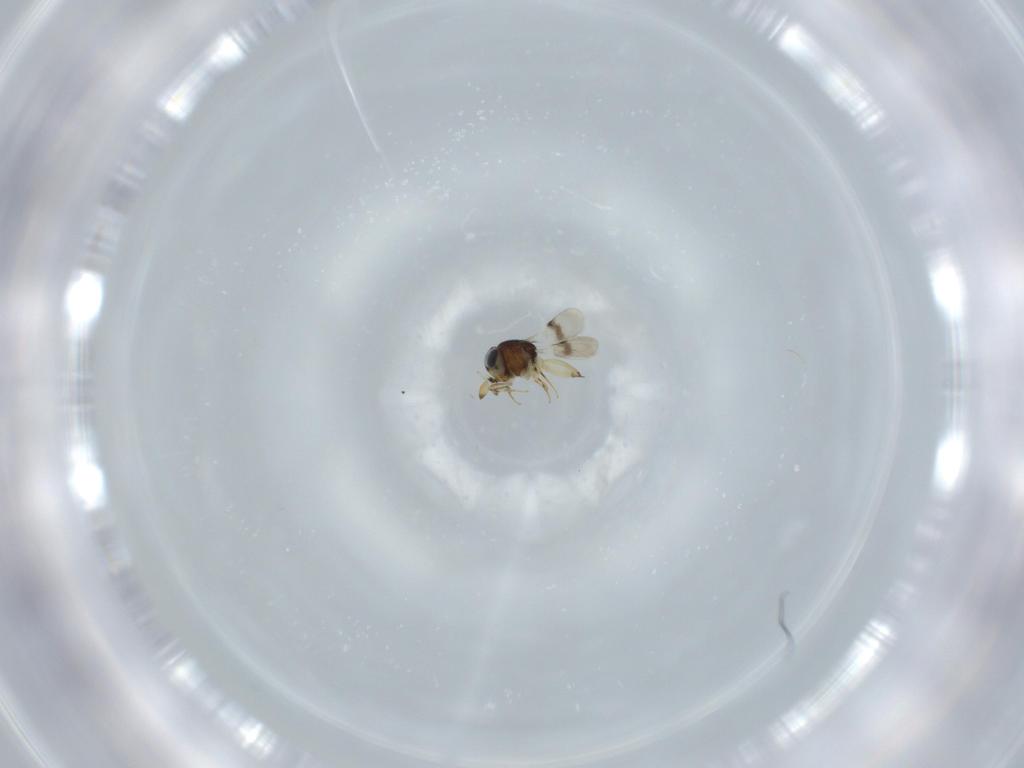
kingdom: Animalia
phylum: Arthropoda
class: Insecta
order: Hymenoptera
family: Scelionidae
